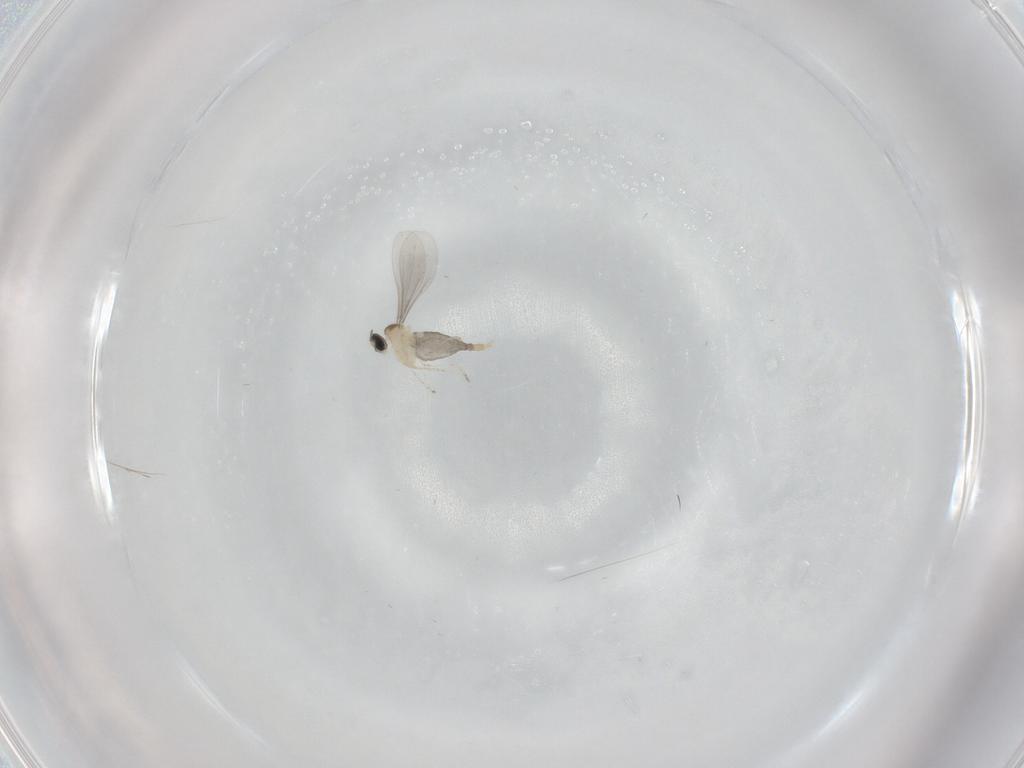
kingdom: Animalia
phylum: Arthropoda
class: Insecta
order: Diptera
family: Cecidomyiidae
